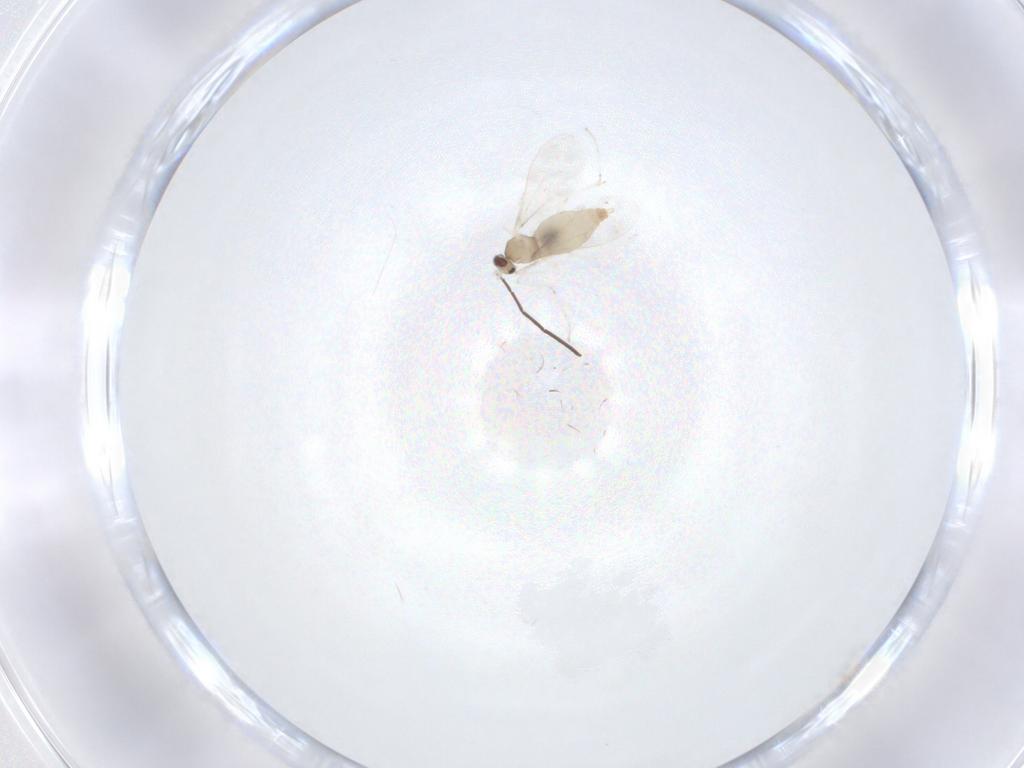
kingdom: Animalia
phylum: Arthropoda
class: Insecta
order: Diptera
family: Cecidomyiidae
